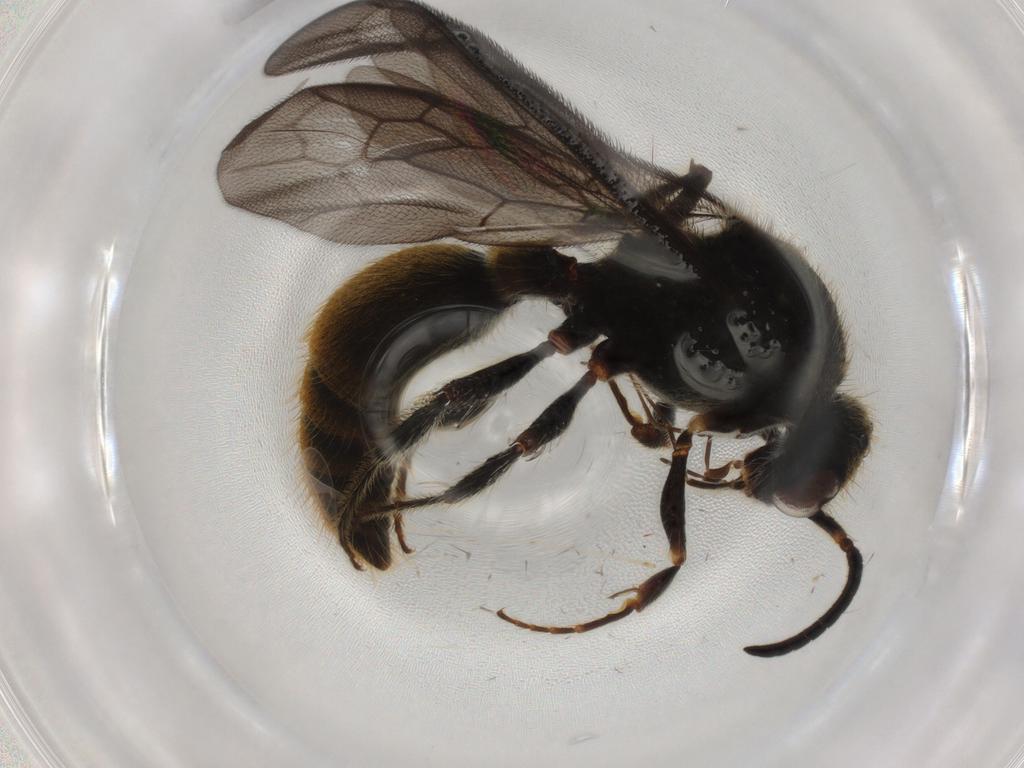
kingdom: Animalia
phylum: Arthropoda
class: Insecta
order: Hymenoptera
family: Mutillidae
